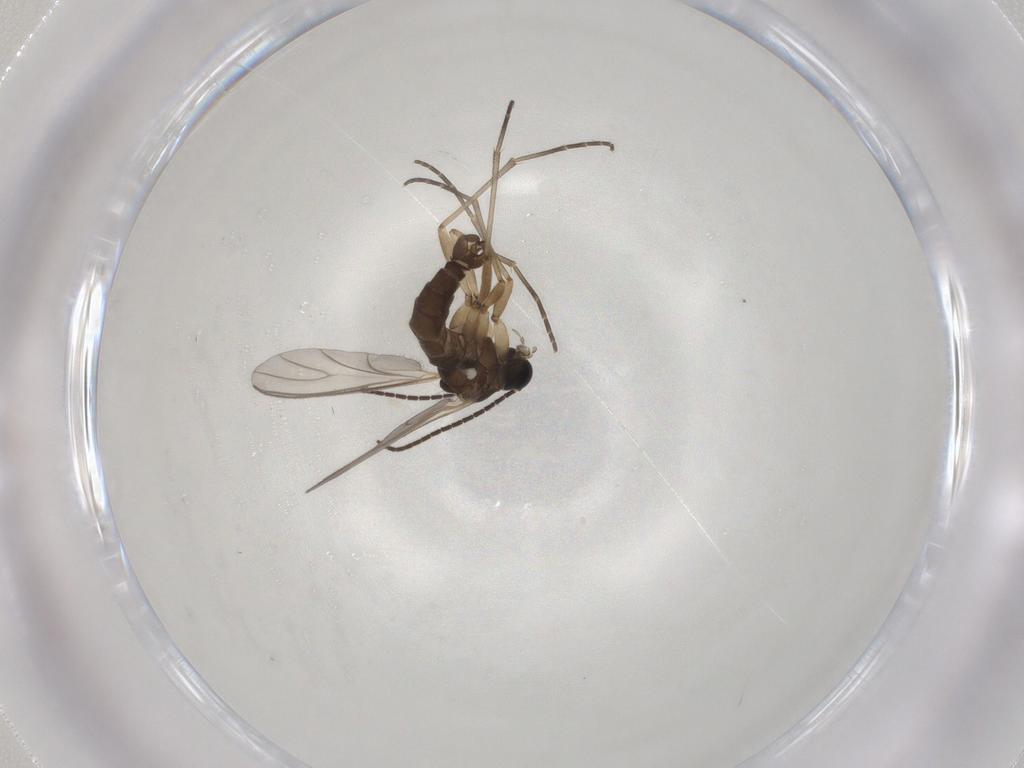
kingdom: Animalia
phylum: Arthropoda
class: Insecta
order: Diptera
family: Sciaridae
